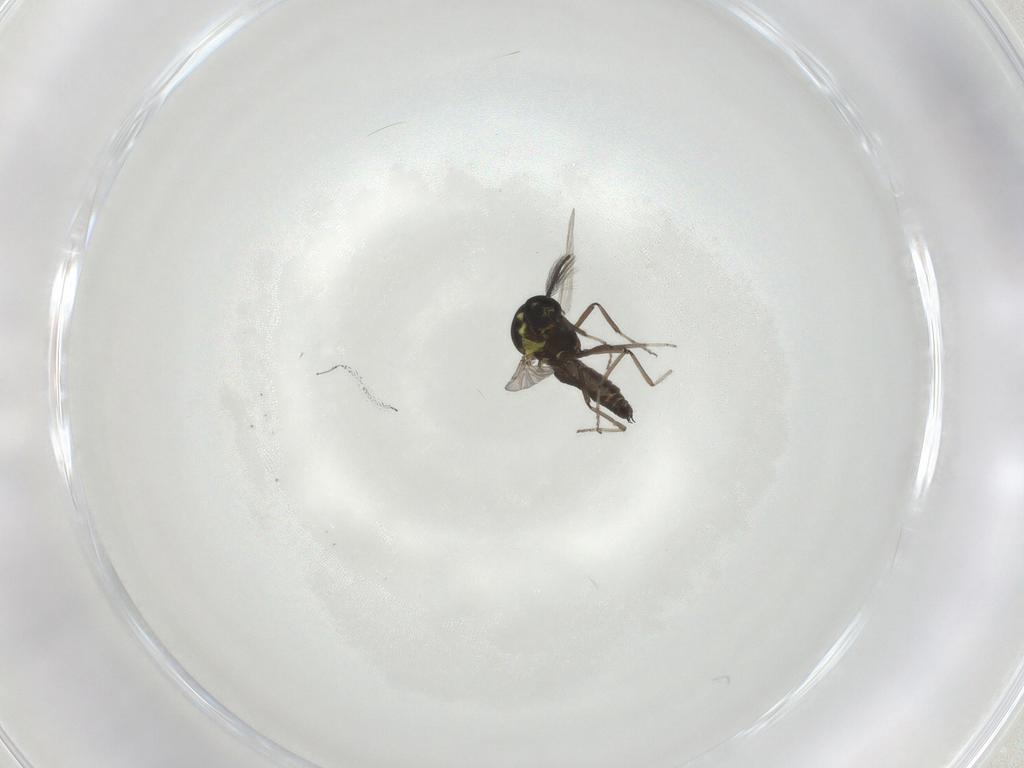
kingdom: Animalia
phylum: Arthropoda
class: Insecta
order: Diptera
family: Ceratopogonidae
